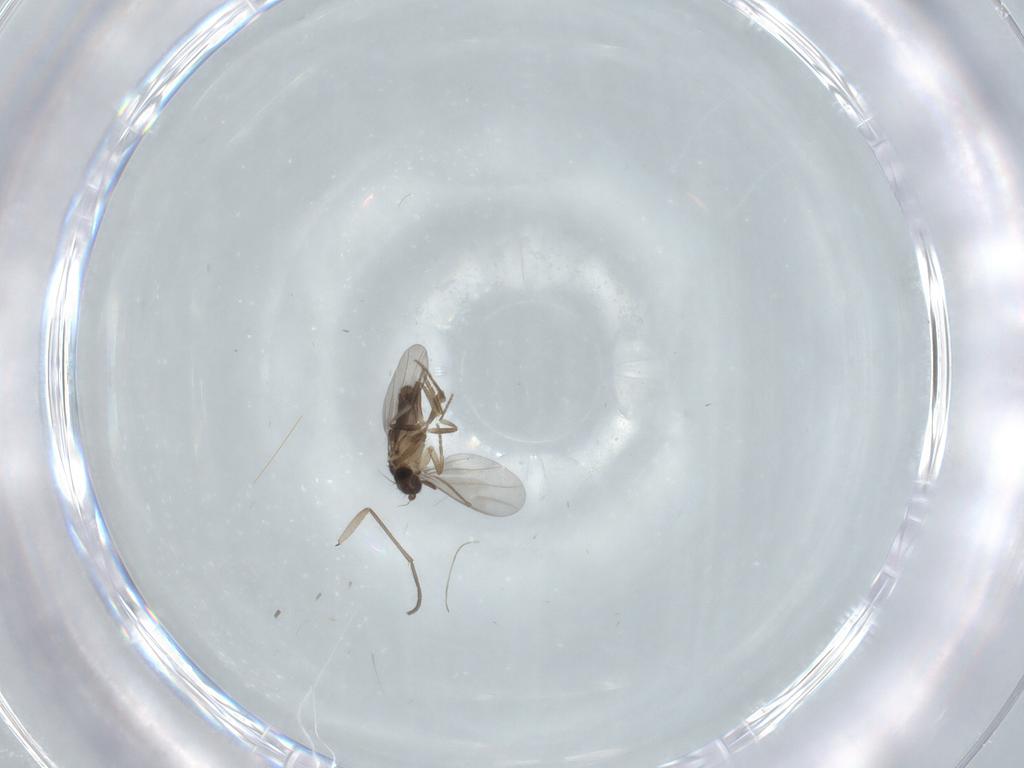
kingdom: Animalia
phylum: Arthropoda
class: Insecta
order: Diptera
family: Sciaridae
